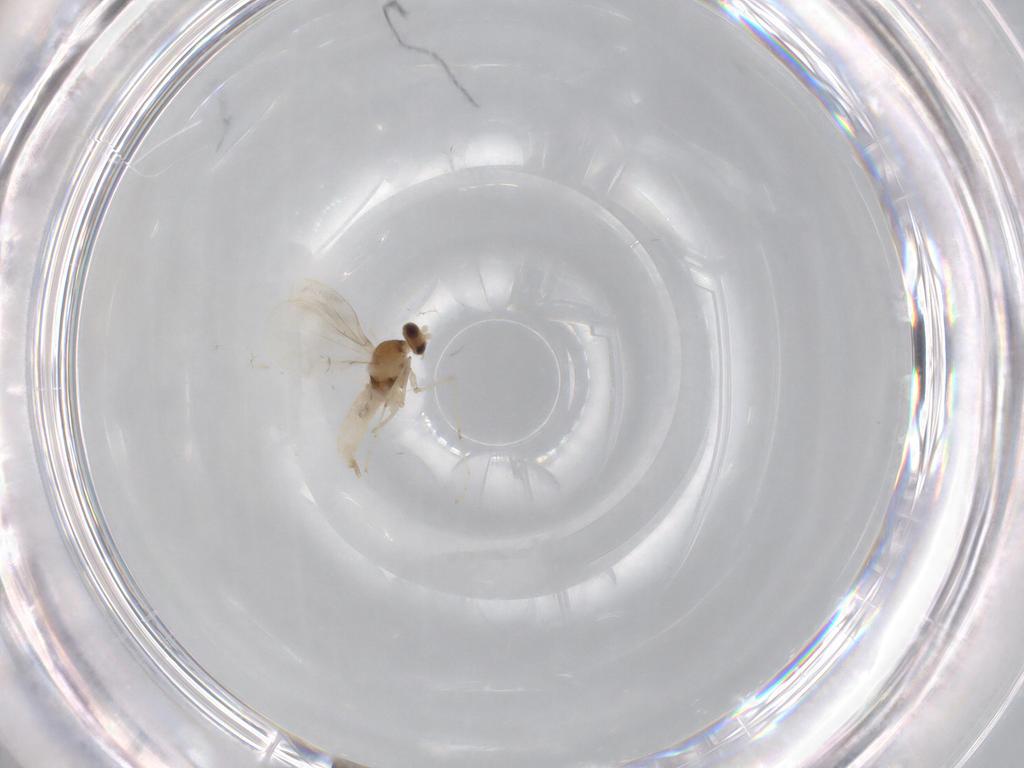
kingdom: Animalia
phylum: Arthropoda
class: Insecta
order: Diptera
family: Cecidomyiidae
